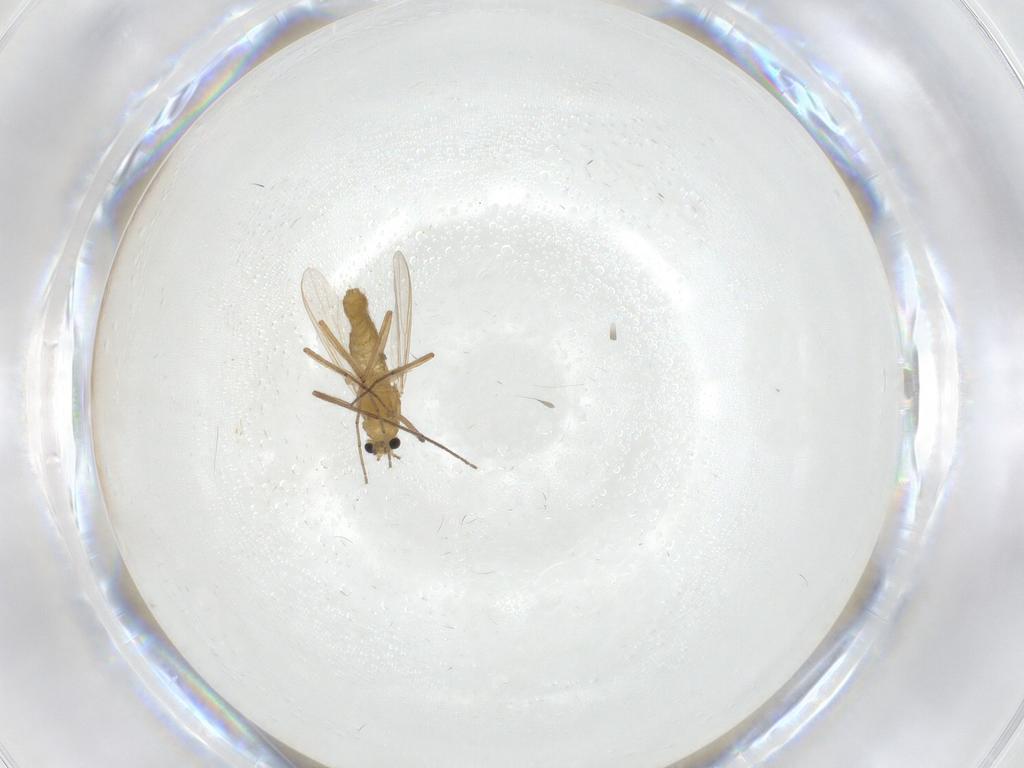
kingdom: Animalia
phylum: Arthropoda
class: Insecta
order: Diptera
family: Chironomidae
